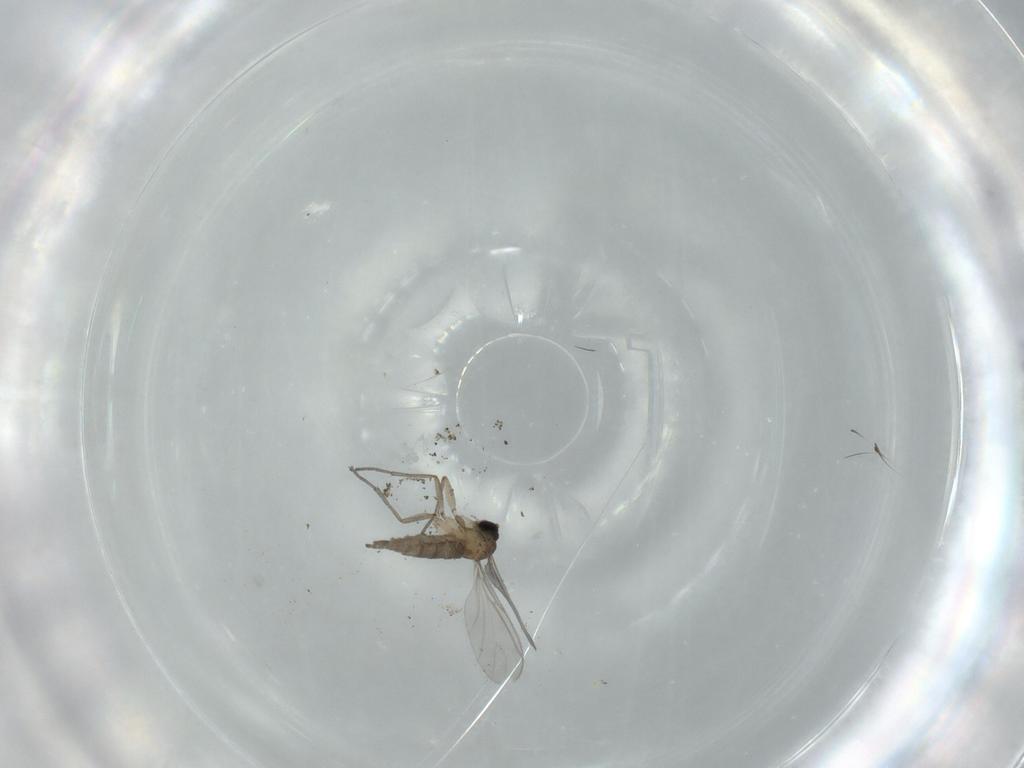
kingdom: Animalia
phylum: Arthropoda
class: Insecta
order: Diptera
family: Sciaridae
